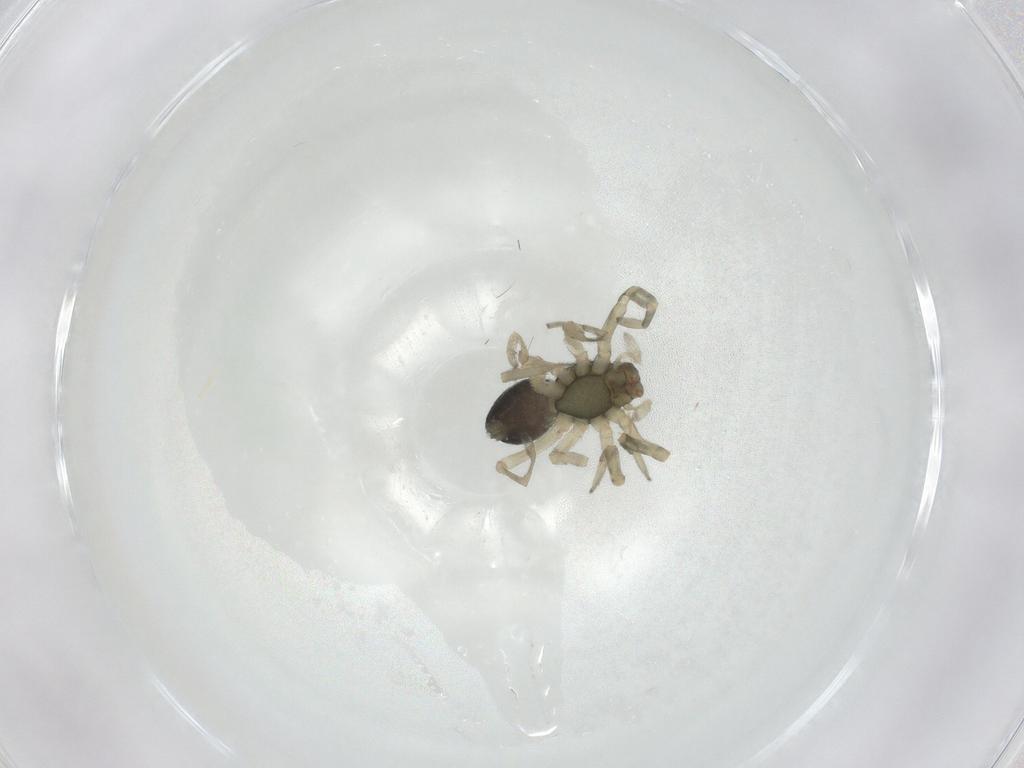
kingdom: Animalia
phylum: Arthropoda
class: Arachnida
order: Araneae
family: Trachelidae
